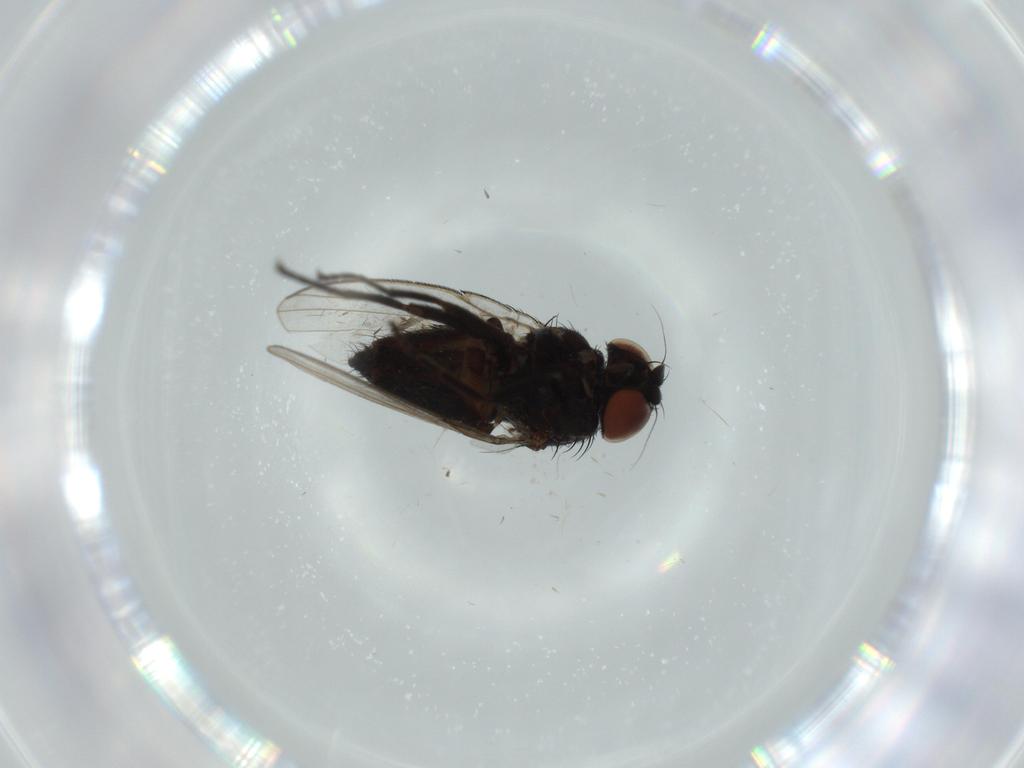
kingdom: Animalia
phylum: Arthropoda
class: Insecta
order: Diptera
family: Milichiidae
